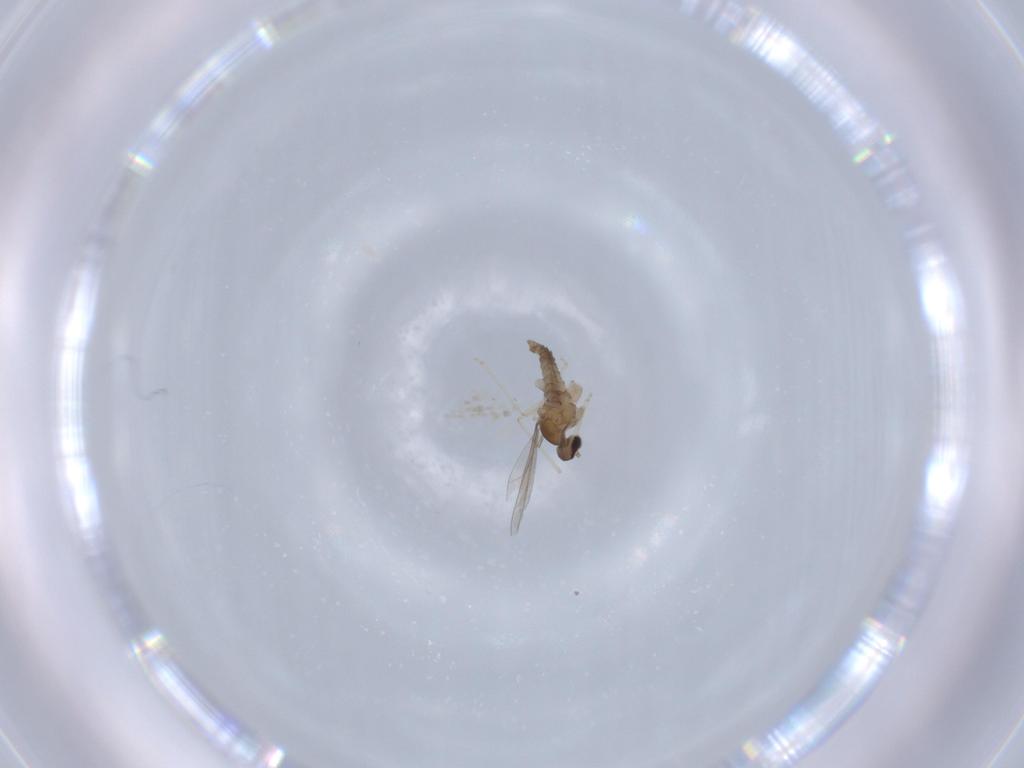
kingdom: Animalia
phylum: Arthropoda
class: Insecta
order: Diptera
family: Cecidomyiidae
